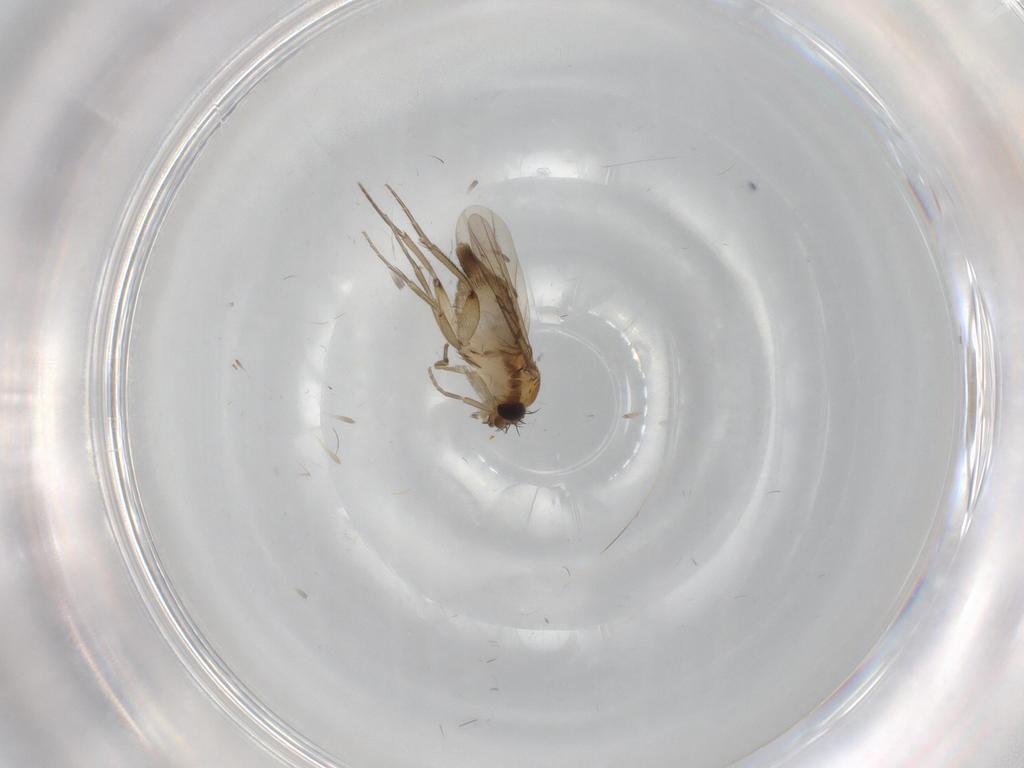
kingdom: Animalia
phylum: Arthropoda
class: Insecta
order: Diptera
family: Phoridae
